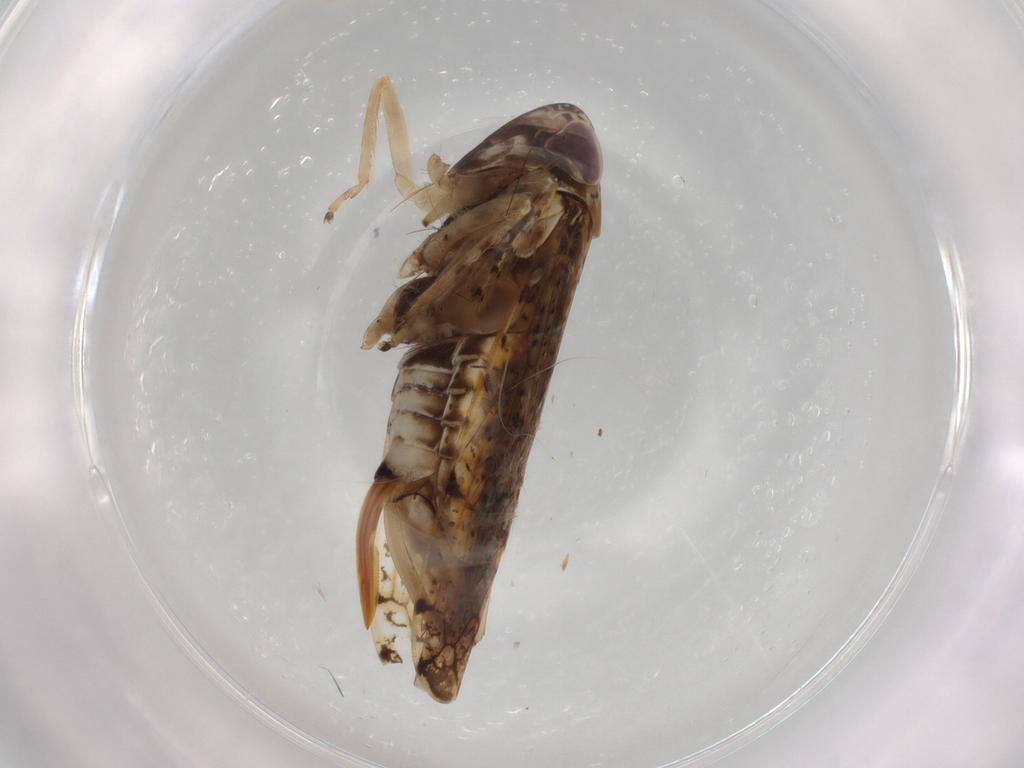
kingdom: Animalia
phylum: Arthropoda
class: Insecta
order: Hemiptera
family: Cicadellidae
